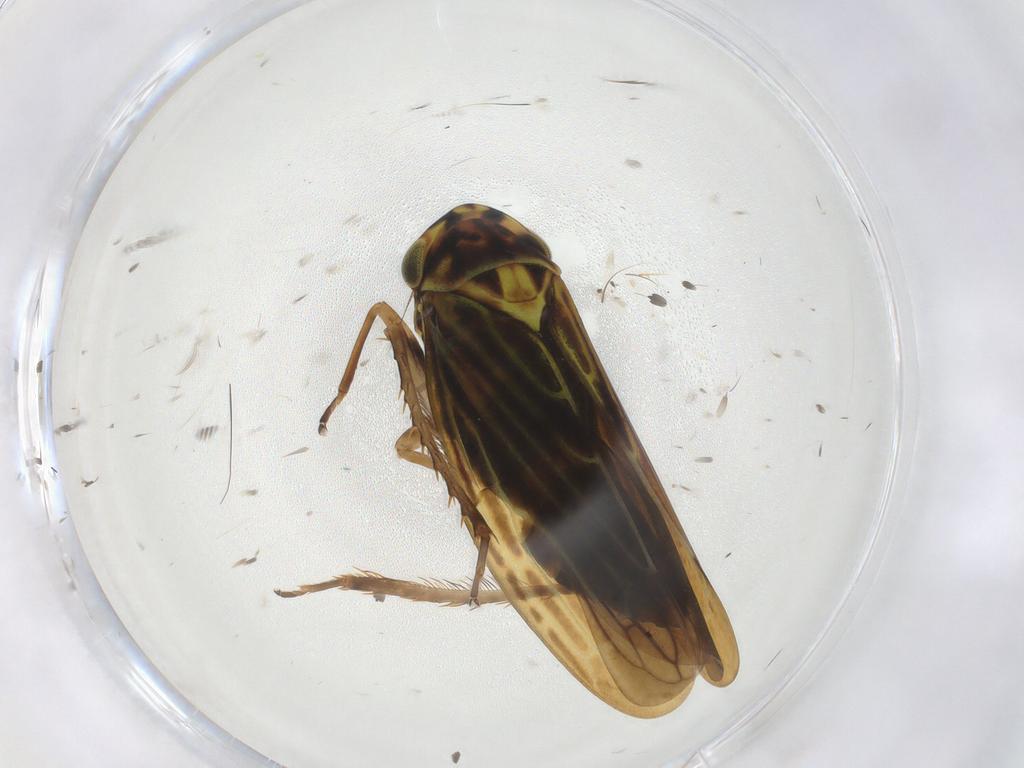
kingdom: Animalia
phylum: Arthropoda
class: Insecta
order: Hemiptera
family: Cicadellidae
